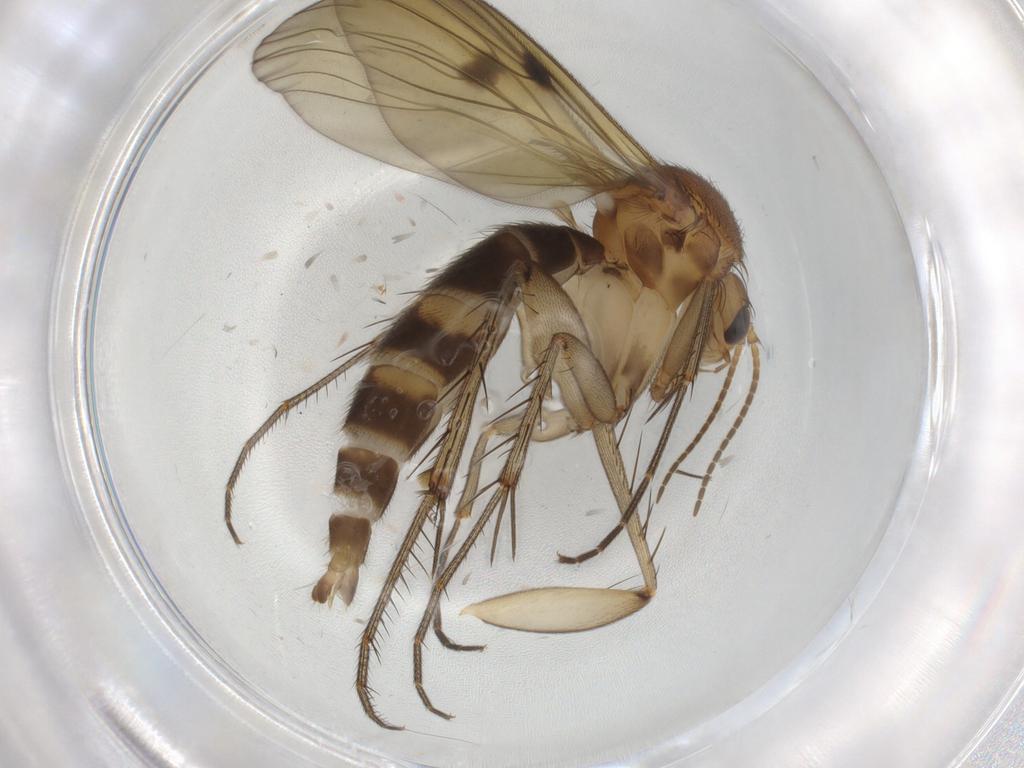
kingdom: Animalia
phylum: Arthropoda
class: Insecta
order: Diptera
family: Mycetophilidae
